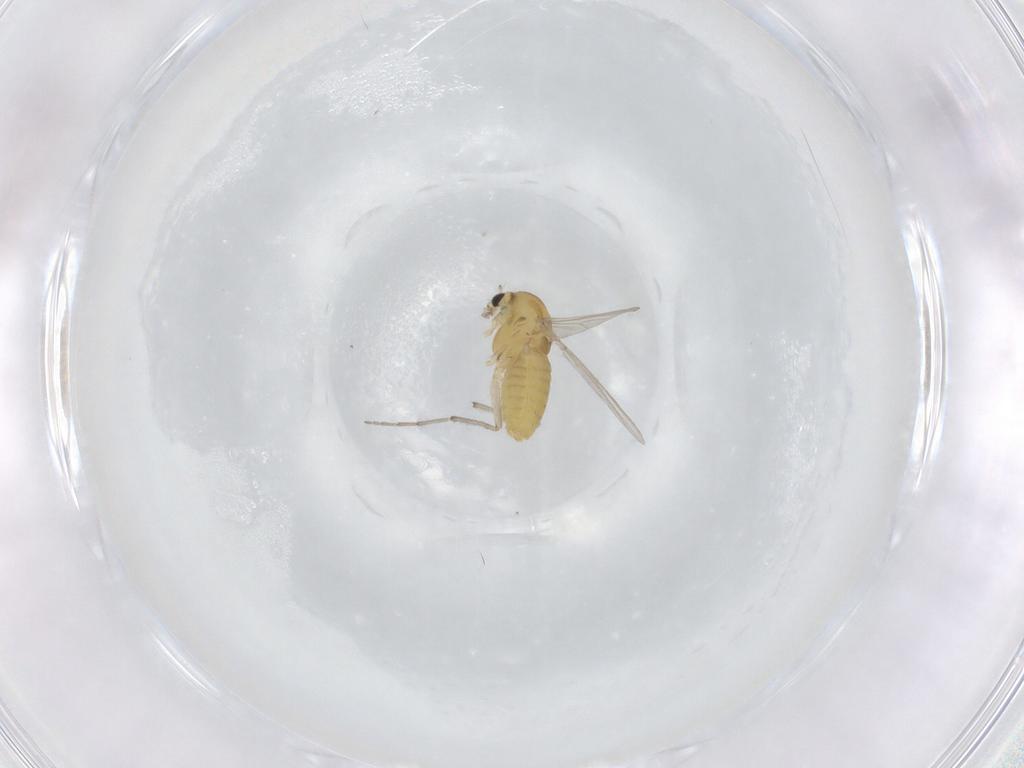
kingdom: Animalia
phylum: Arthropoda
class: Insecta
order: Diptera
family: Chironomidae
